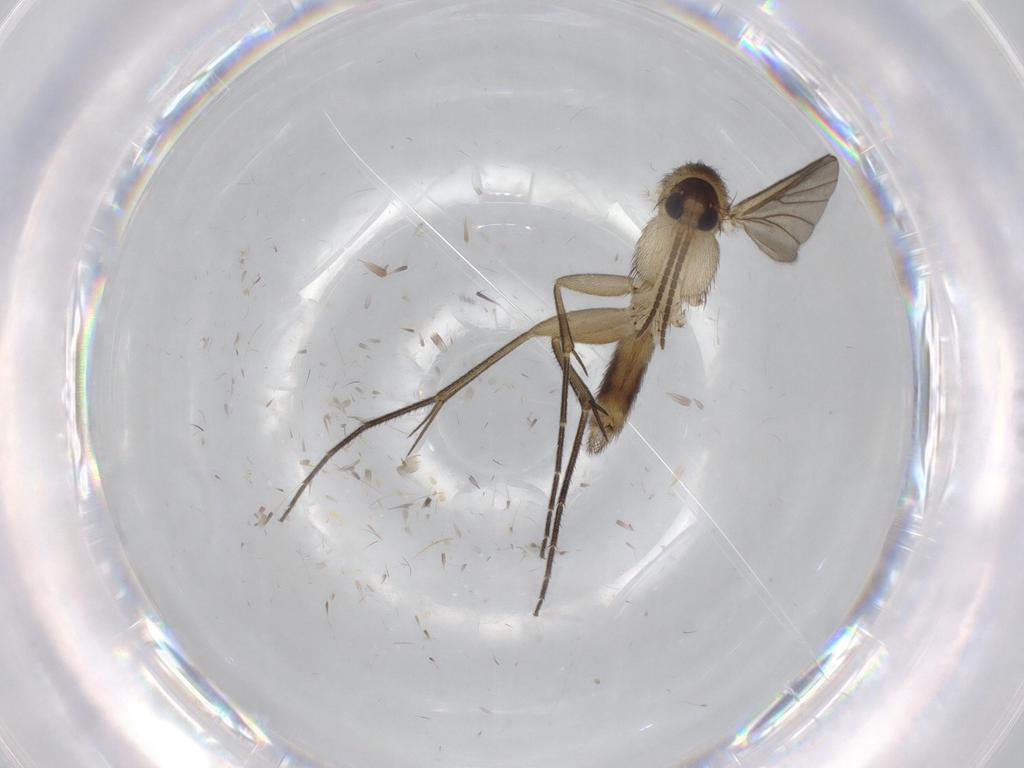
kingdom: Animalia
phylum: Arthropoda
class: Insecta
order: Diptera
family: Mycetophilidae
